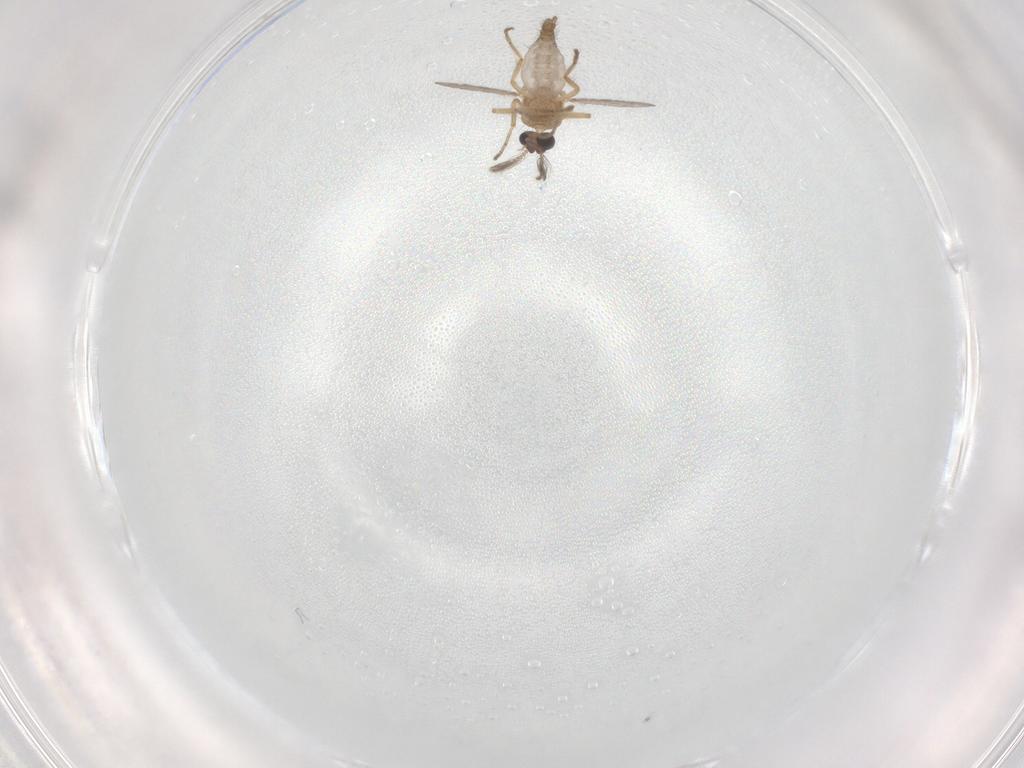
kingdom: Animalia
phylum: Arthropoda
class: Insecta
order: Diptera
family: Ceratopogonidae
